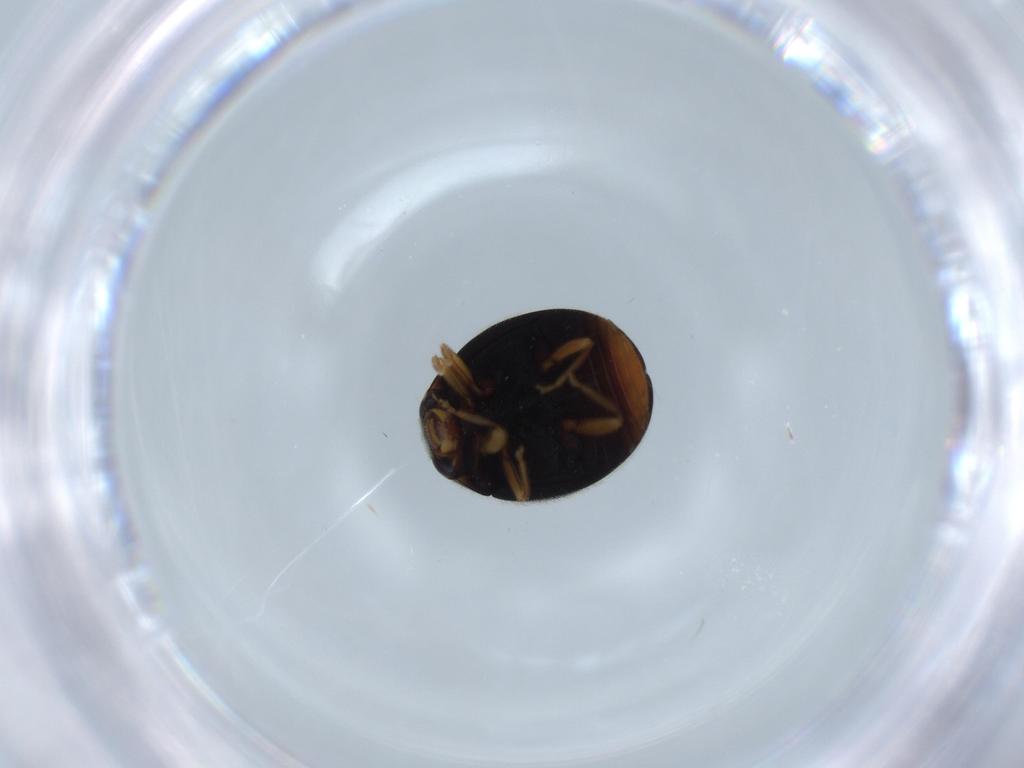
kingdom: Animalia
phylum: Arthropoda
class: Insecta
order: Coleoptera
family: Coccinellidae
